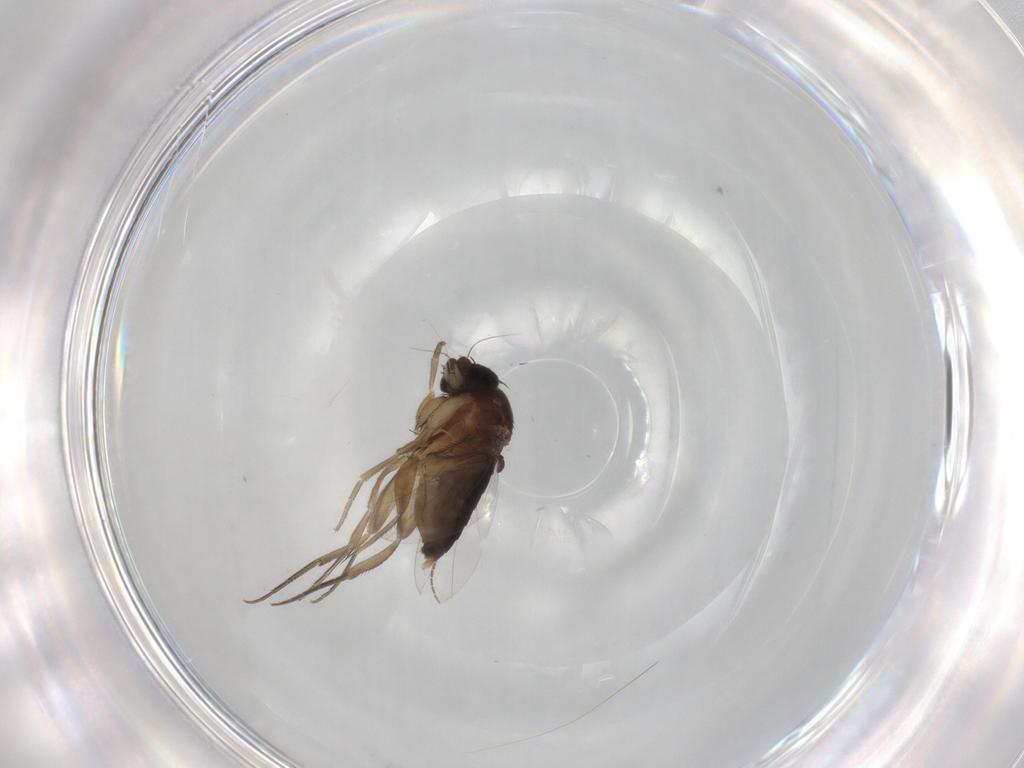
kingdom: Animalia
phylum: Arthropoda
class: Insecta
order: Diptera
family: Phoridae
